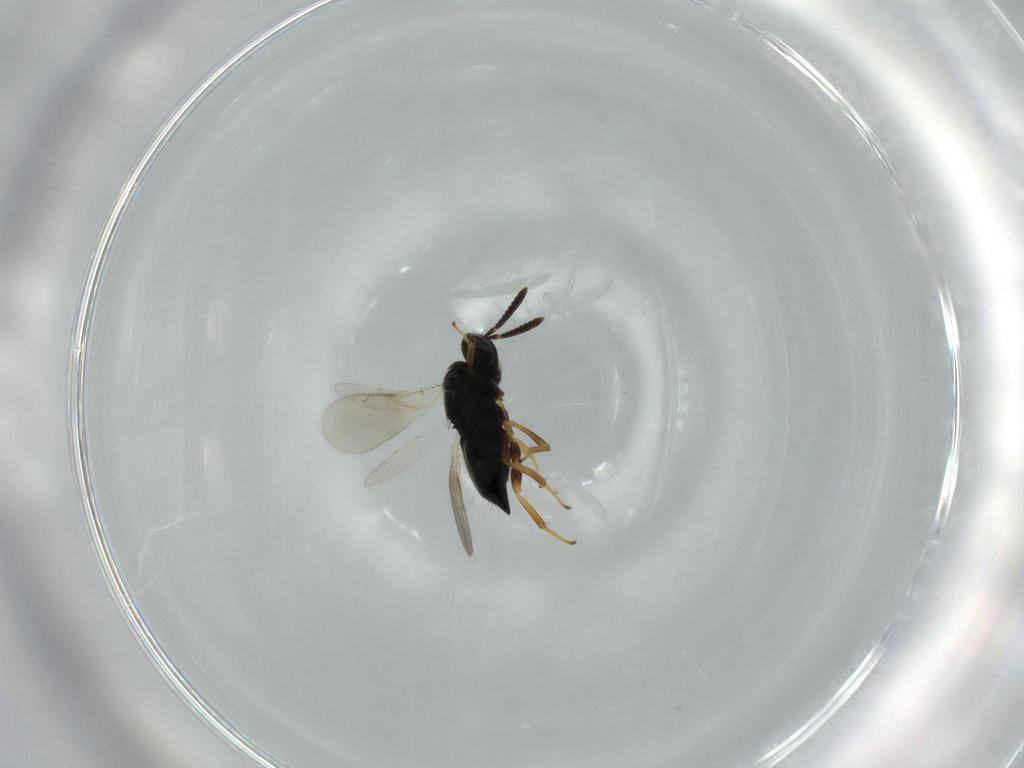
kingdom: Animalia
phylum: Arthropoda
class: Insecta
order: Hymenoptera
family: Pteromalidae
